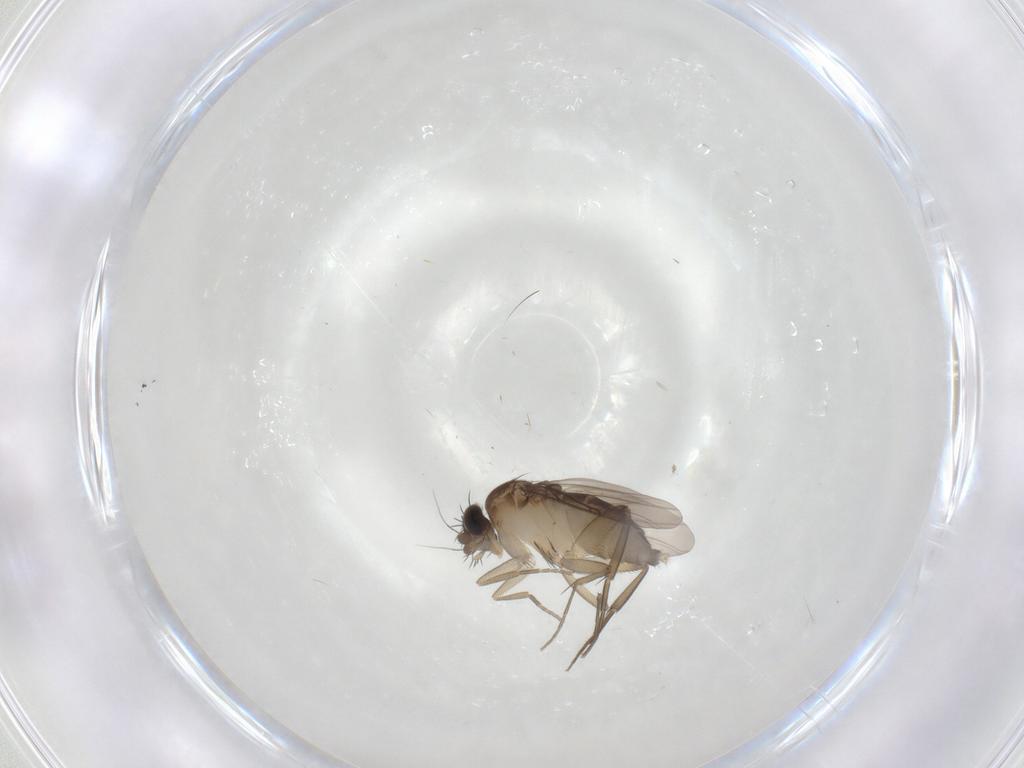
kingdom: Animalia
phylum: Arthropoda
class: Insecta
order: Diptera
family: Phoridae
